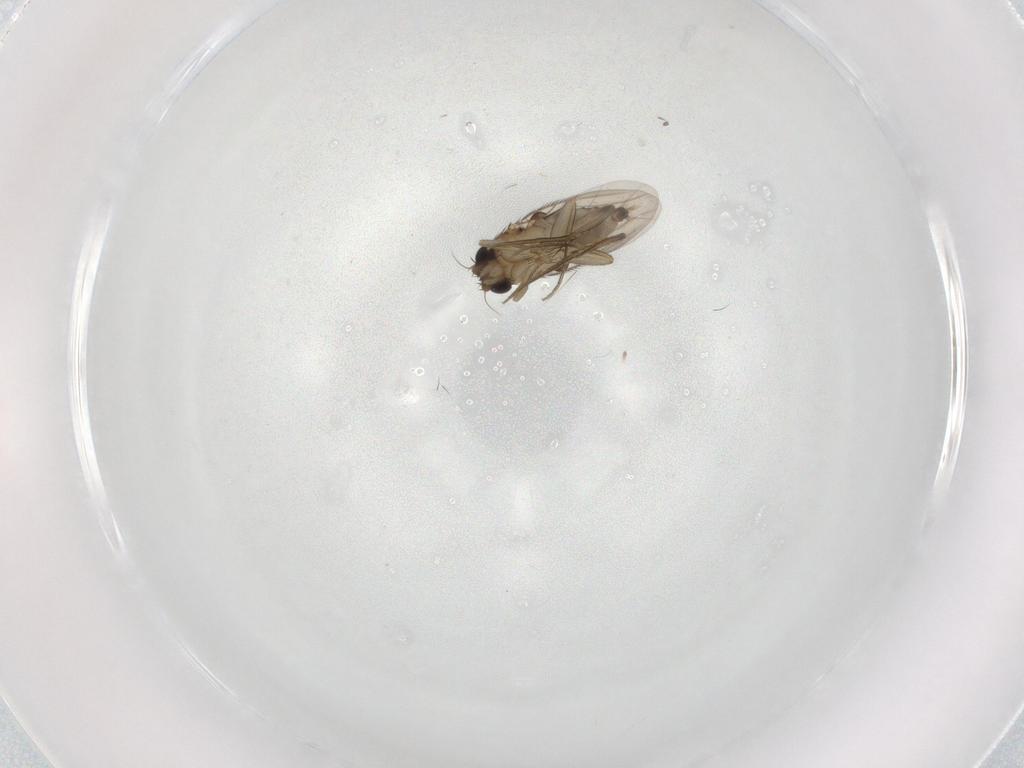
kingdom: Animalia
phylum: Arthropoda
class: Insecta
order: Diptera
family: Phoridae
